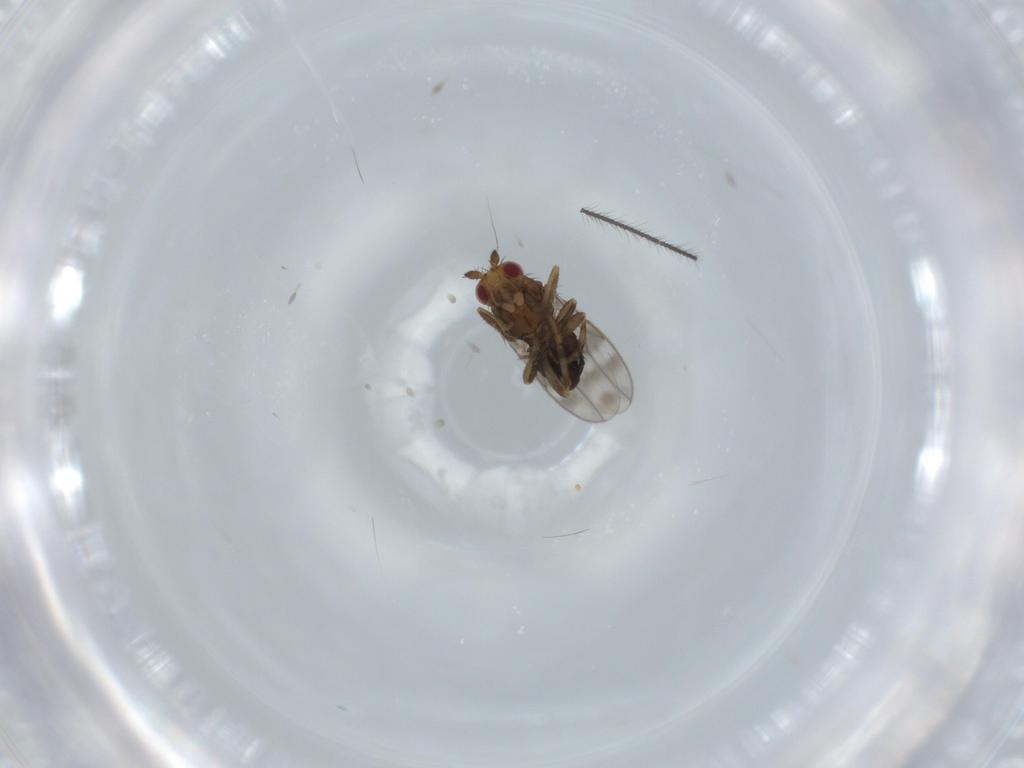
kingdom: Animalia
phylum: Arthropoda
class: Insecta
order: Diptera
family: Sphaeroceridae
